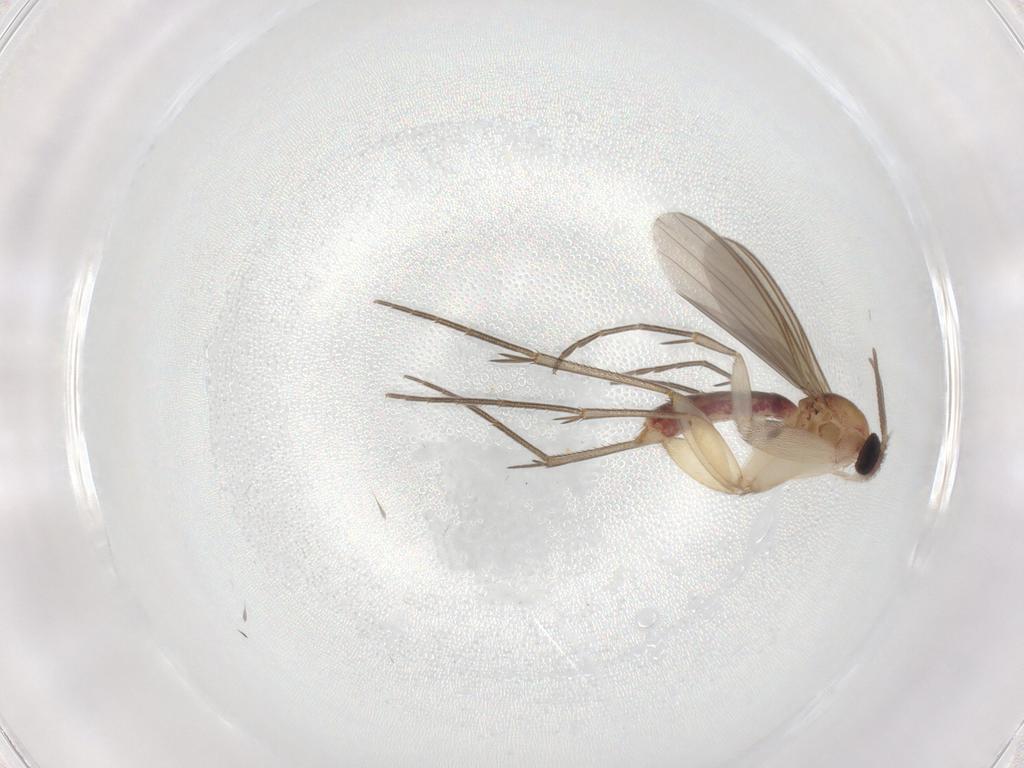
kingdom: Animalia
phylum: Arthropoda
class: Insecta
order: Diptera
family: Mycetophilidae
